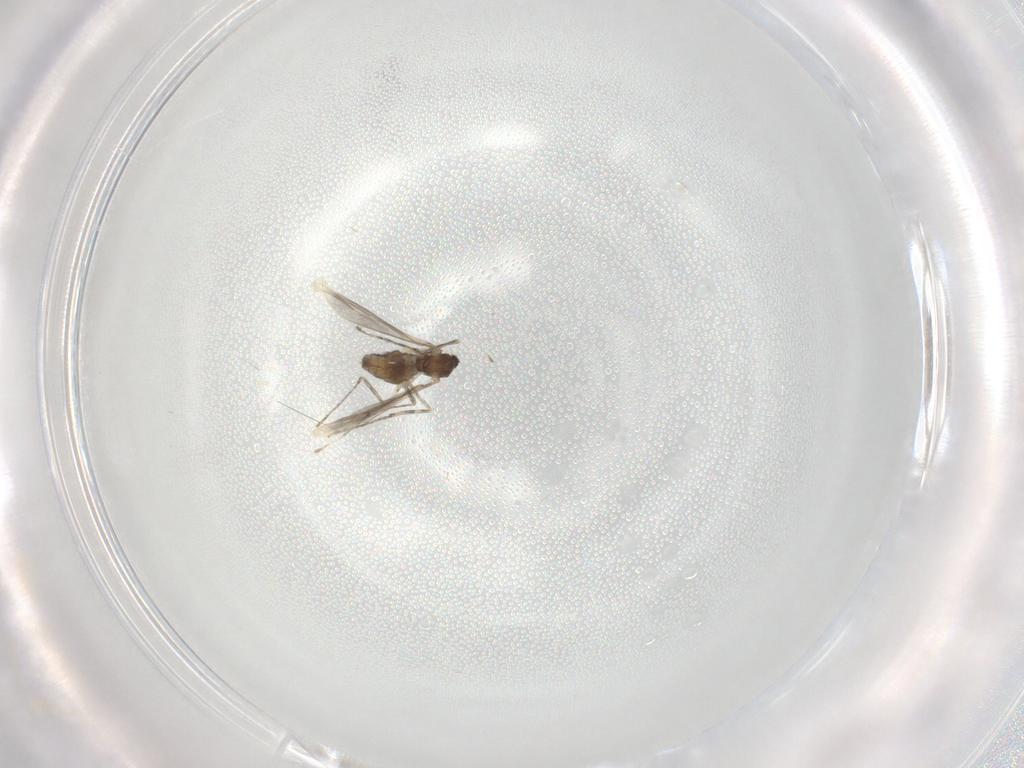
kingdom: Animalia
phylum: Arthropoda
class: Insecta
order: Diptera
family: Cecidomyiidae
